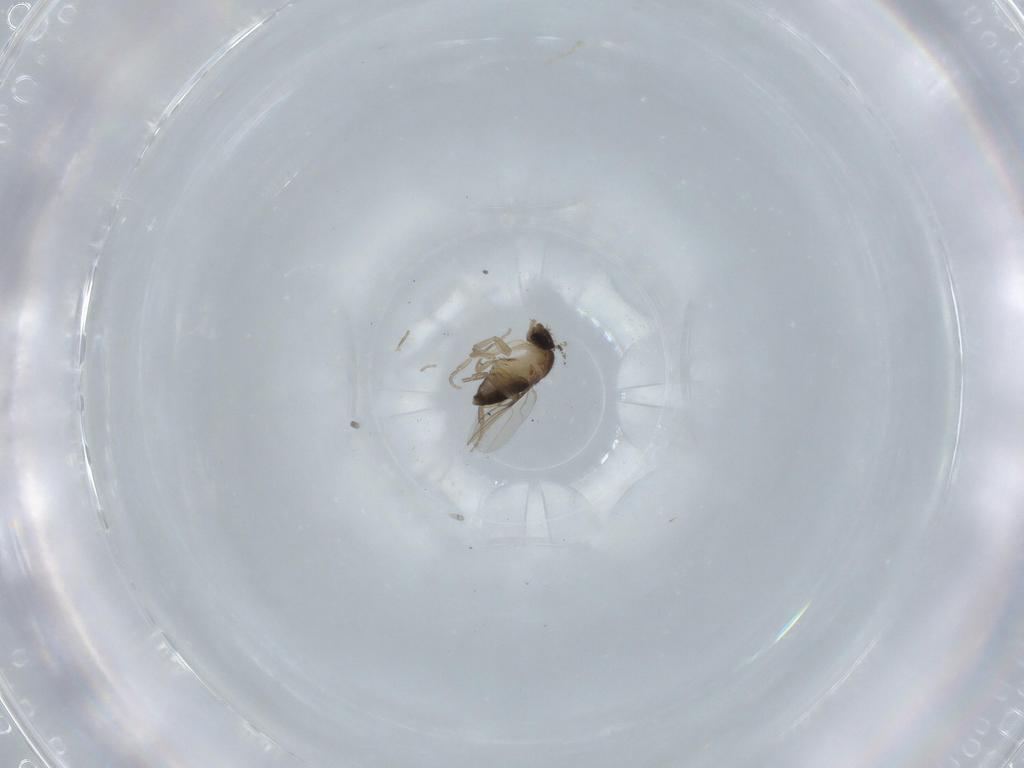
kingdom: Animalia
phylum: Arthropoda
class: Insecta
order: Diptera
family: Phoridae
